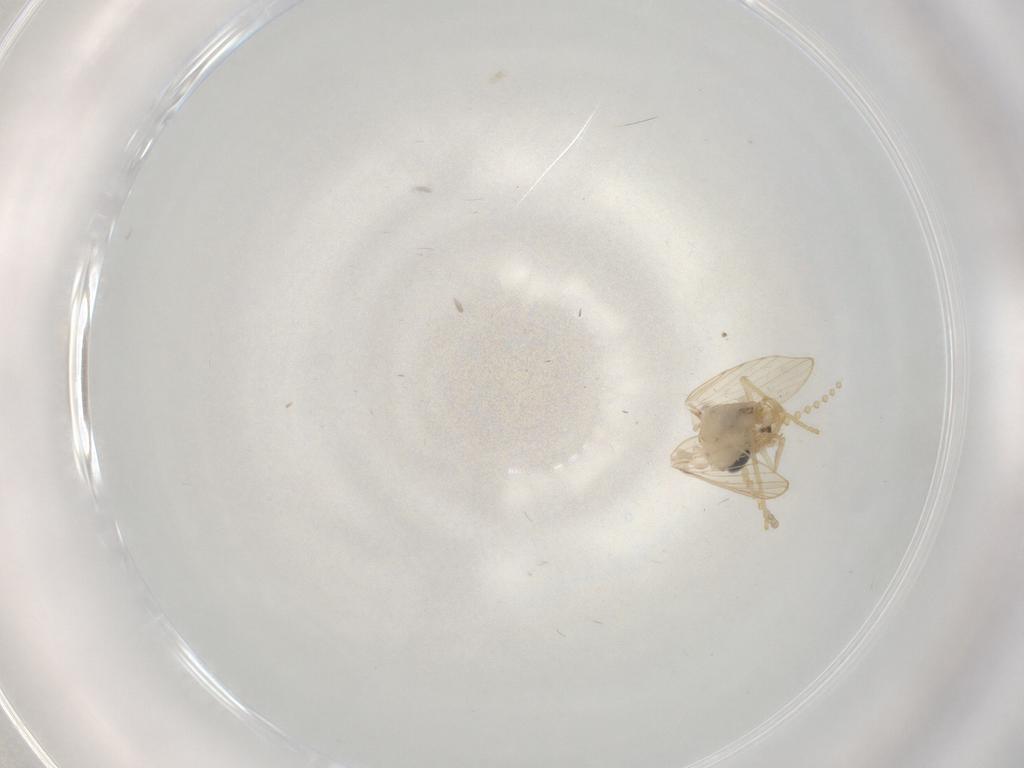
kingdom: Animalia
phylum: Arthropoda
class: Insecta
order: Diptera
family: Psychodidae
